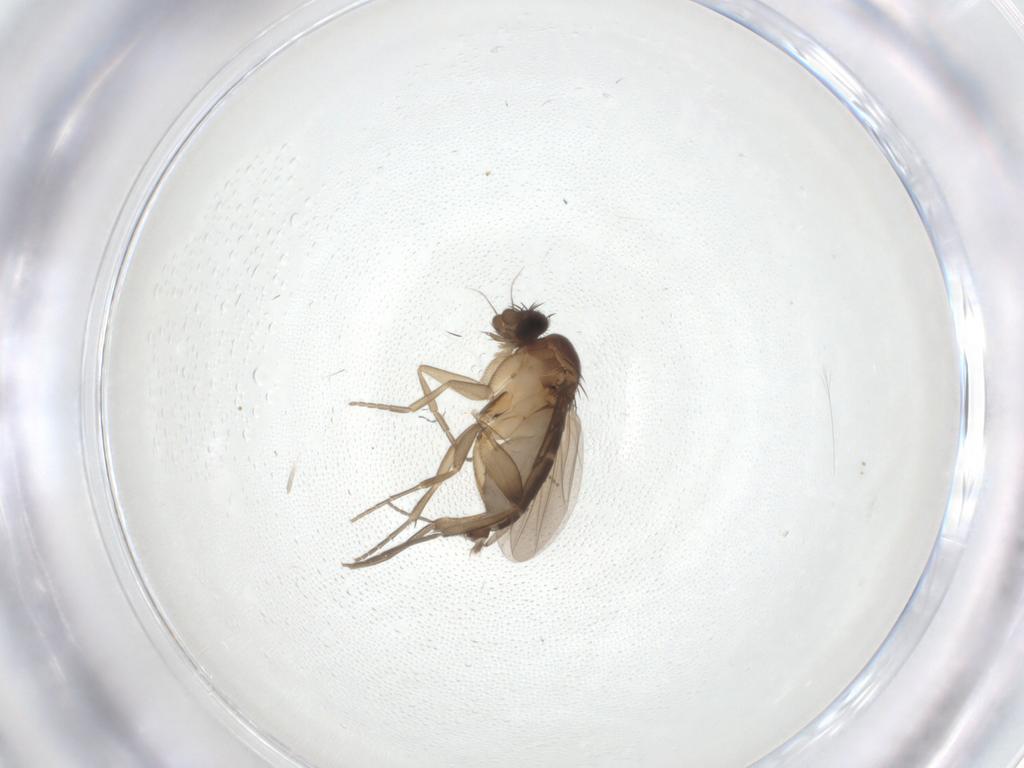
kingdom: Animalia
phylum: Arthropoda
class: Insecta
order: Diptera
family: Phoridae
